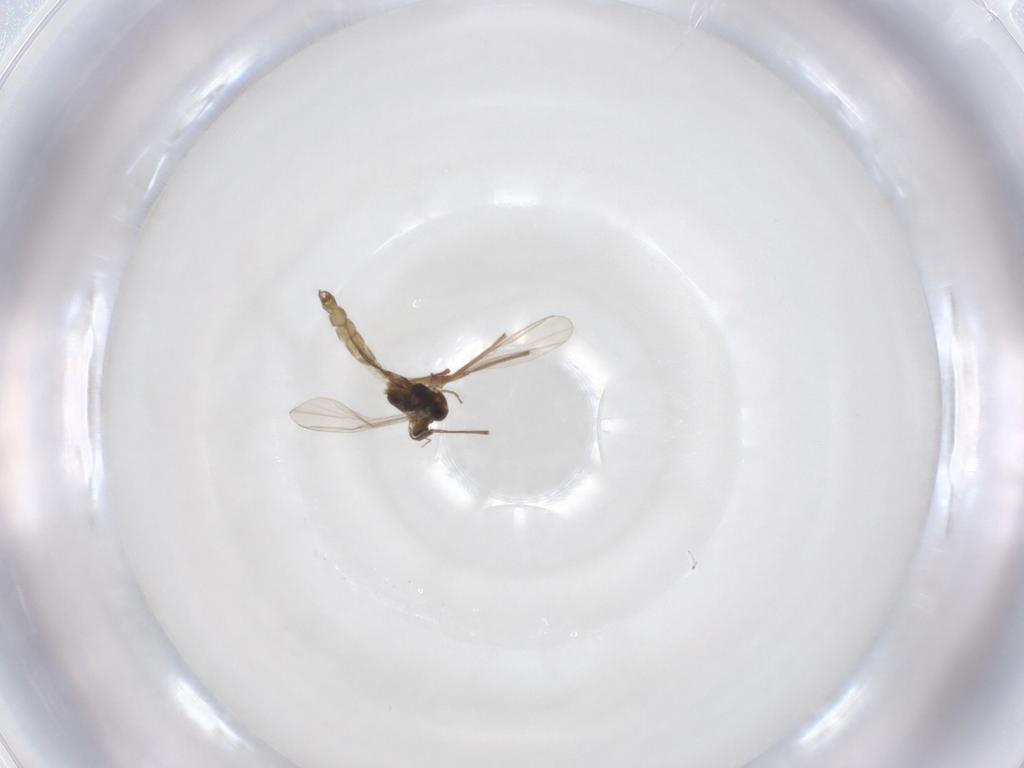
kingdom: Animalia
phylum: Arthropoda
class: Insecta
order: Diptera
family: Chironomidae
